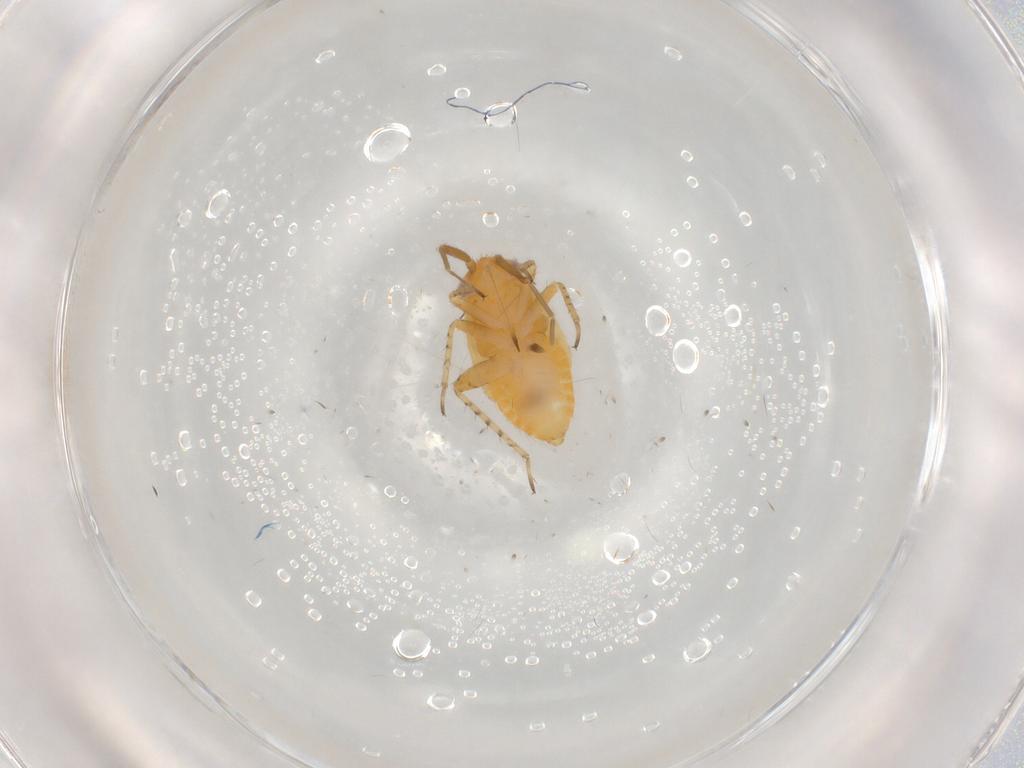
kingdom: Animalia
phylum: Arthropoda
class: Insecta
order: Hemiptera
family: Miridae
